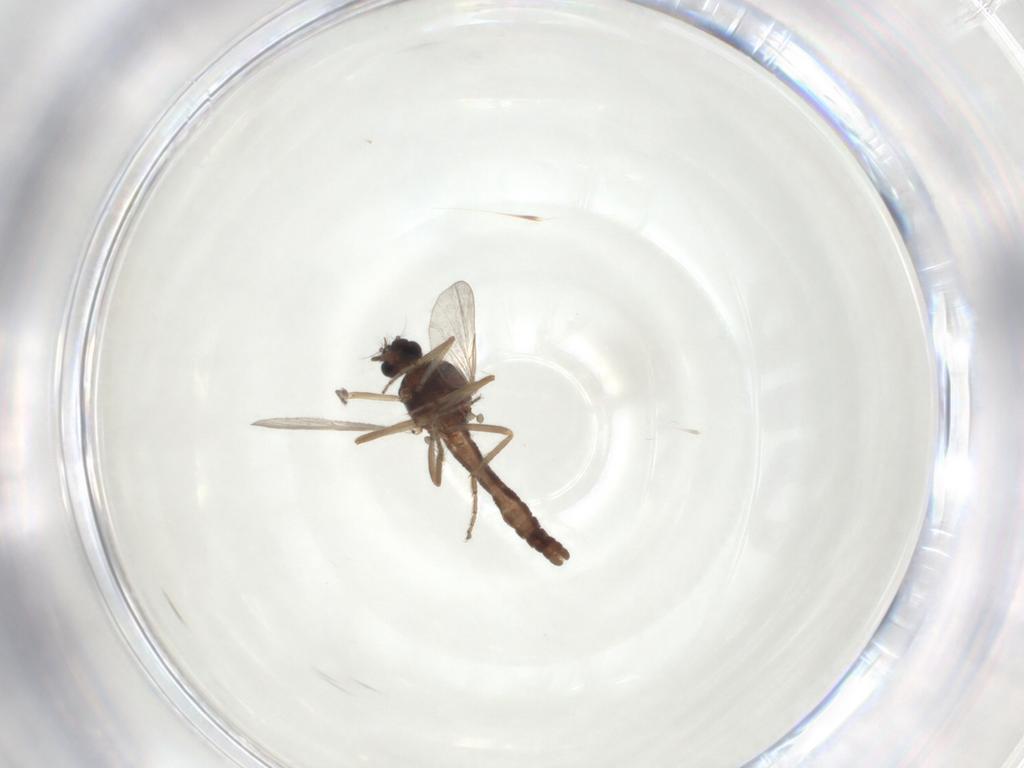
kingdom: Animalia
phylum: Arthropoda
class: Insecta
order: Diptera
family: Ceratopogonidae
